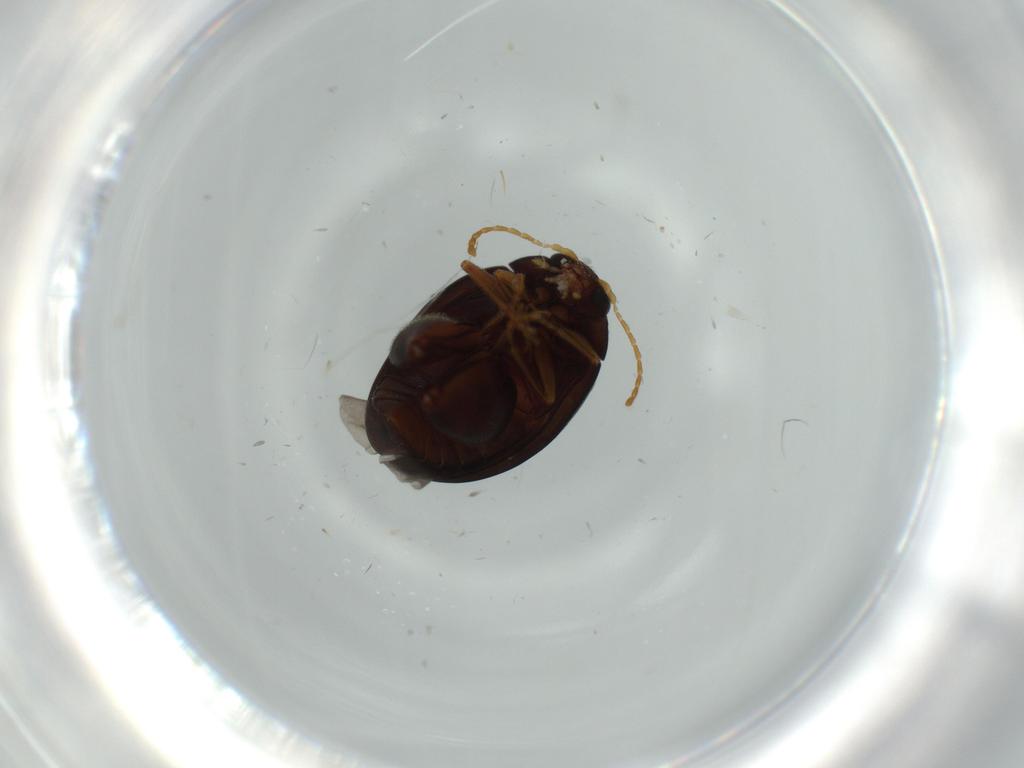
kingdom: Animalia
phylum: Arthropoda
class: Insecta
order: Coleoptera
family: Chrysomelidae
